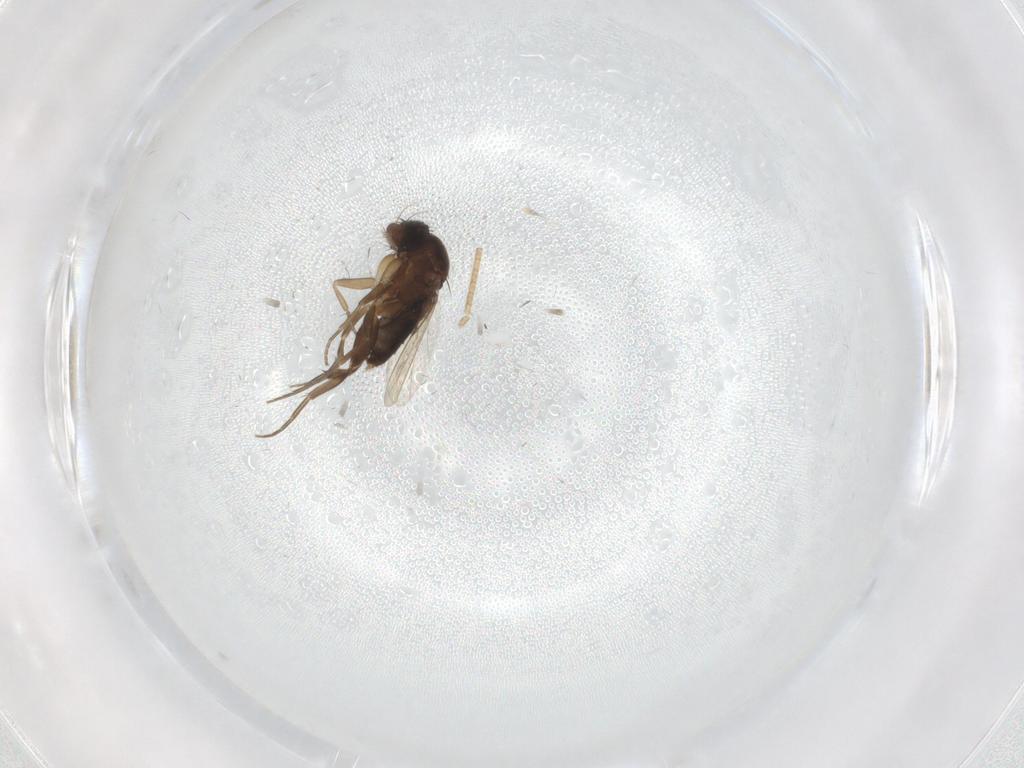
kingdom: Animalia
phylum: Arthropoda
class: Insecta
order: Diptera
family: Phoridae
